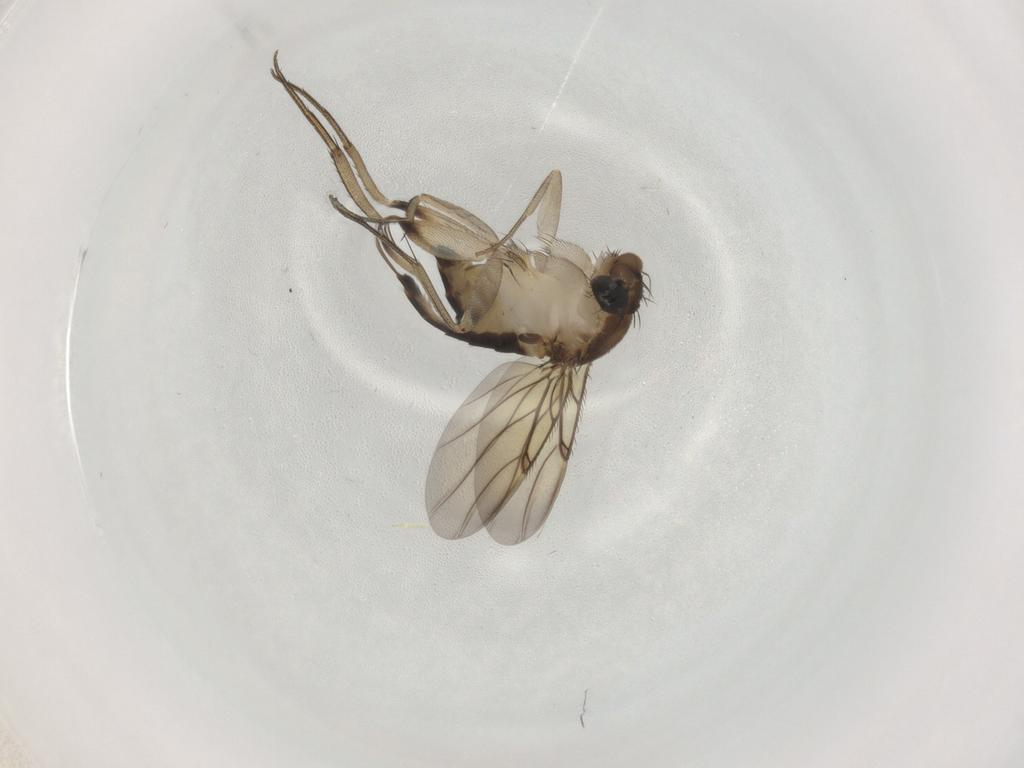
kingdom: Animalia
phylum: Arthropoda
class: Insecta
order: Diptera
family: Phoridae
